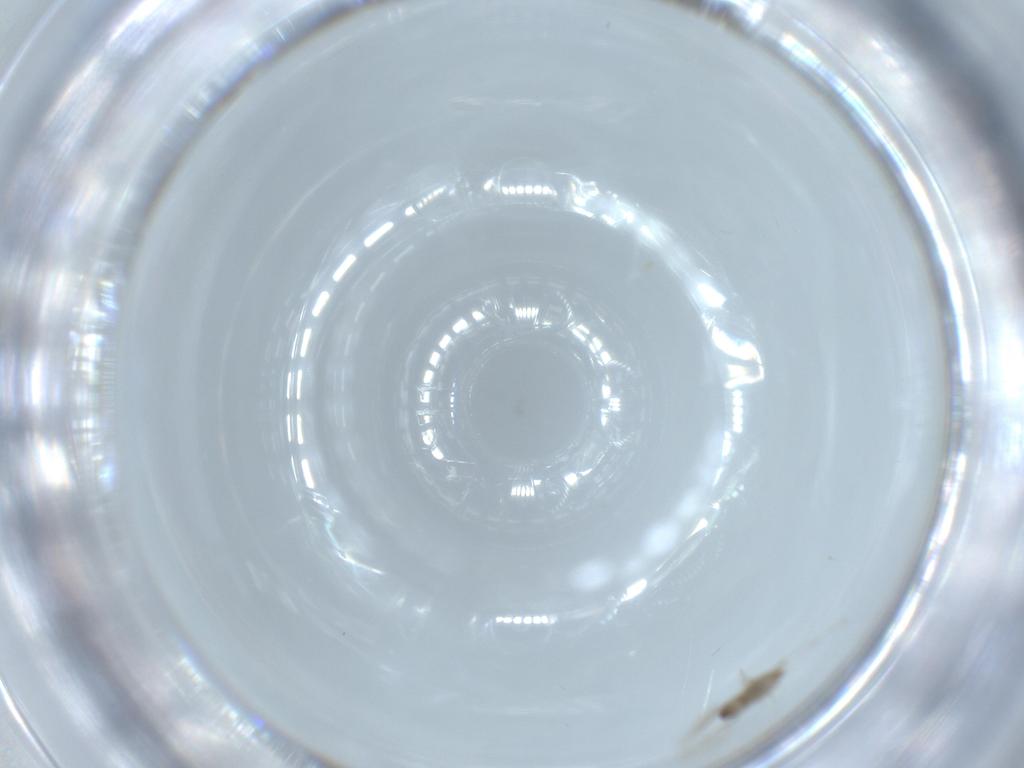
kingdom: Animalia
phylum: Arthropoda
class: Insecta
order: Diptera
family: Cecidomyiidae
